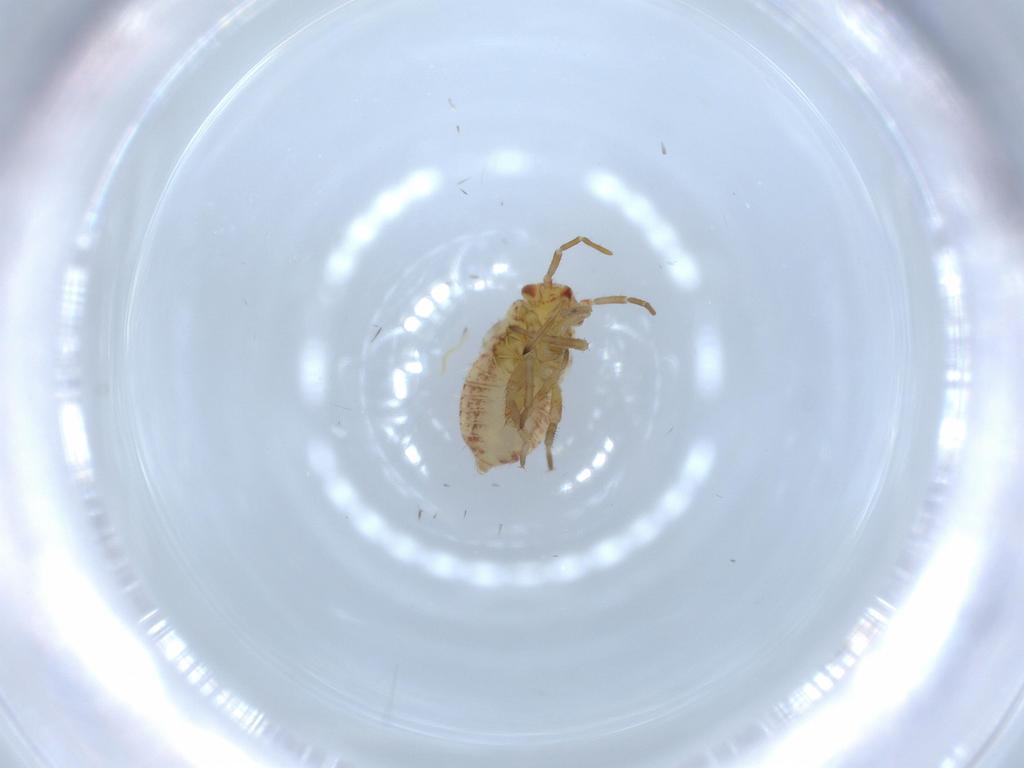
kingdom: Animalia
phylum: Arthropoda
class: Insecta
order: Hemiptera
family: Miridae
